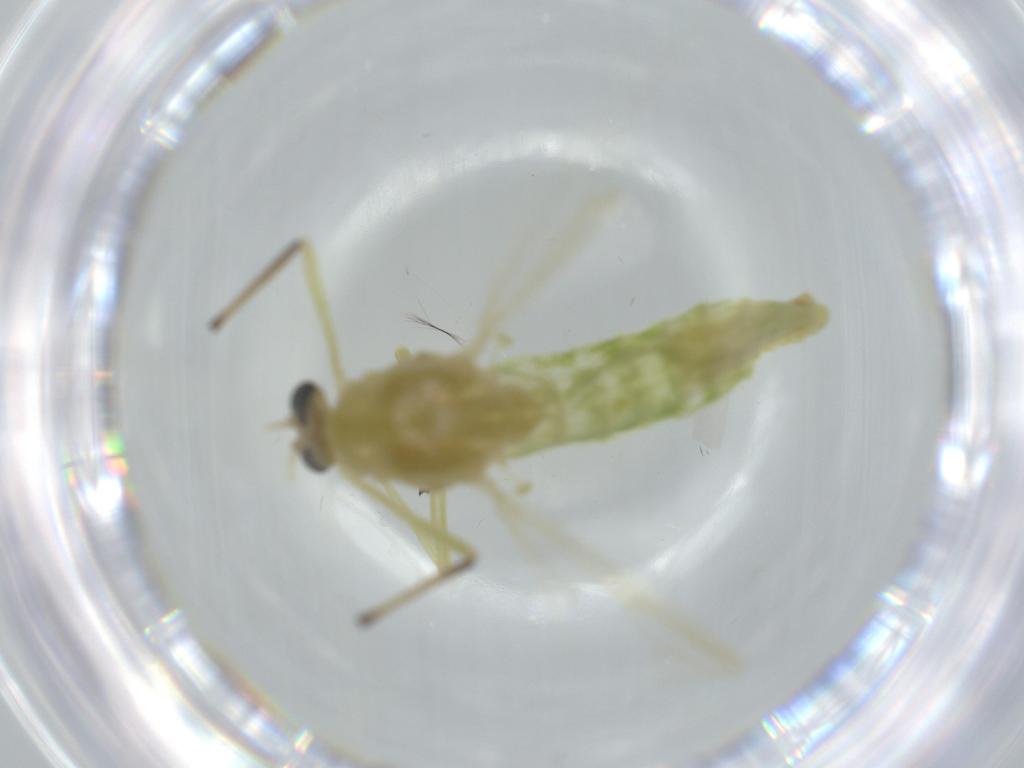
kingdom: Animalia
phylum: Arthropoda
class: Insecta
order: Diptera
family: Chironomidae
